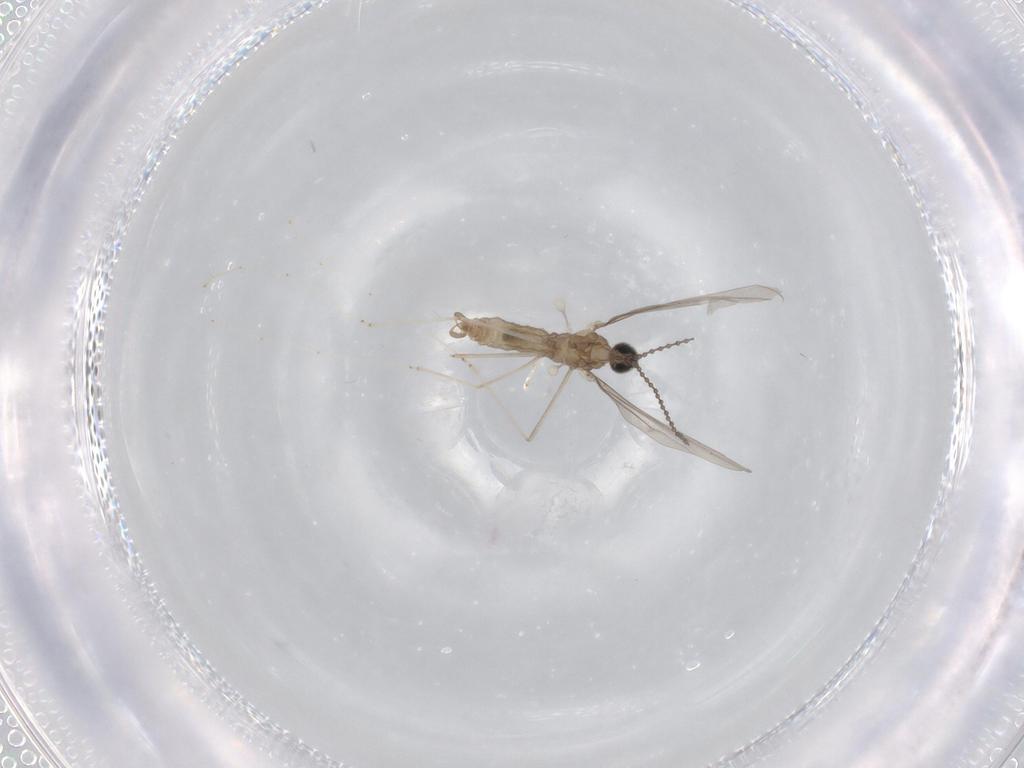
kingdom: Animalia
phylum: Arthropoda
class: Insecta
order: Diptera
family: Cecidomyiidae
